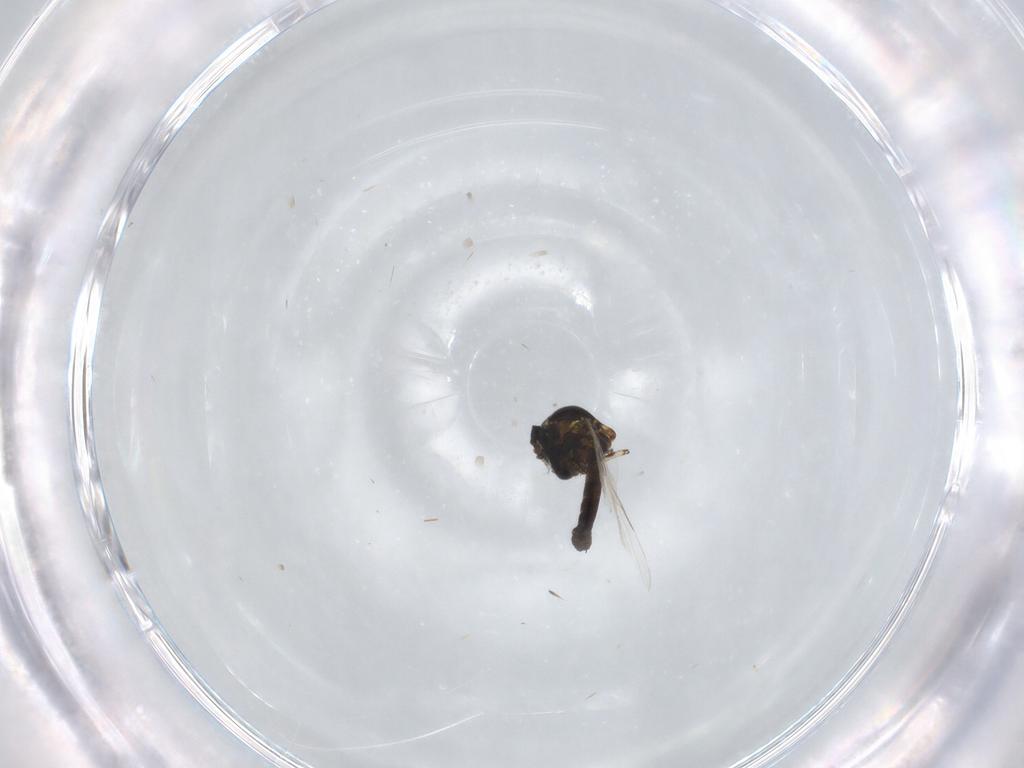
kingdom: Animalia
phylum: Arthropoda
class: Insecta
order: Diptera
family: Ceratopogonidae
